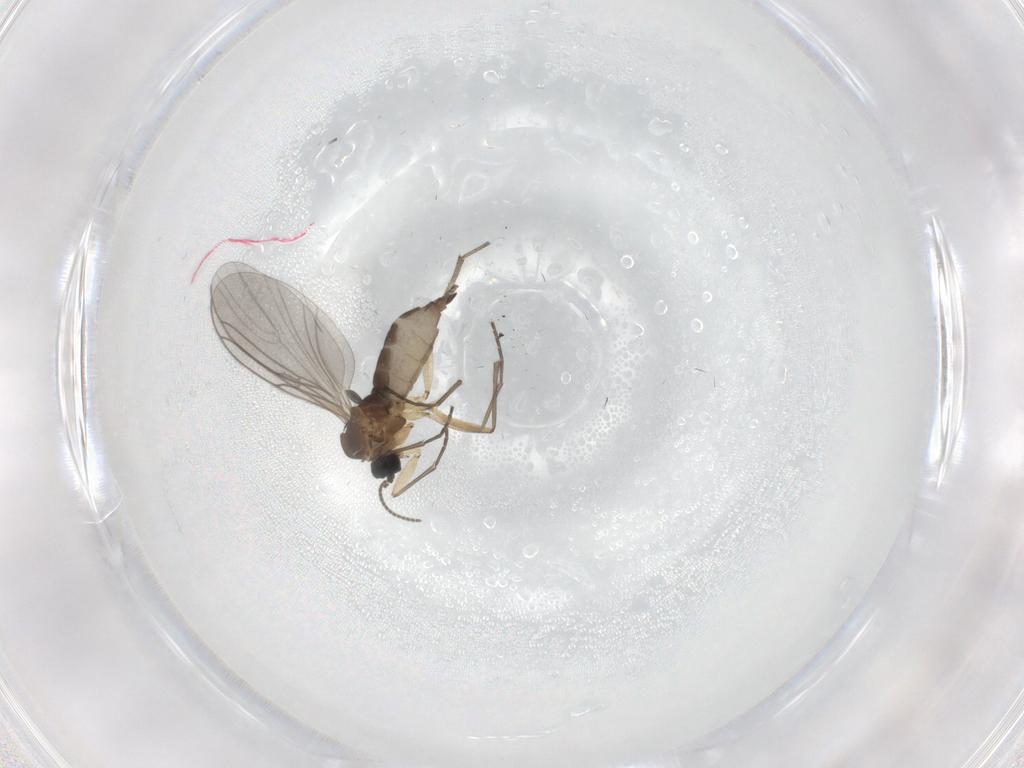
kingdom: Animalia
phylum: Arthropoda
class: Insecta
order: Diptera
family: Sciaridae
